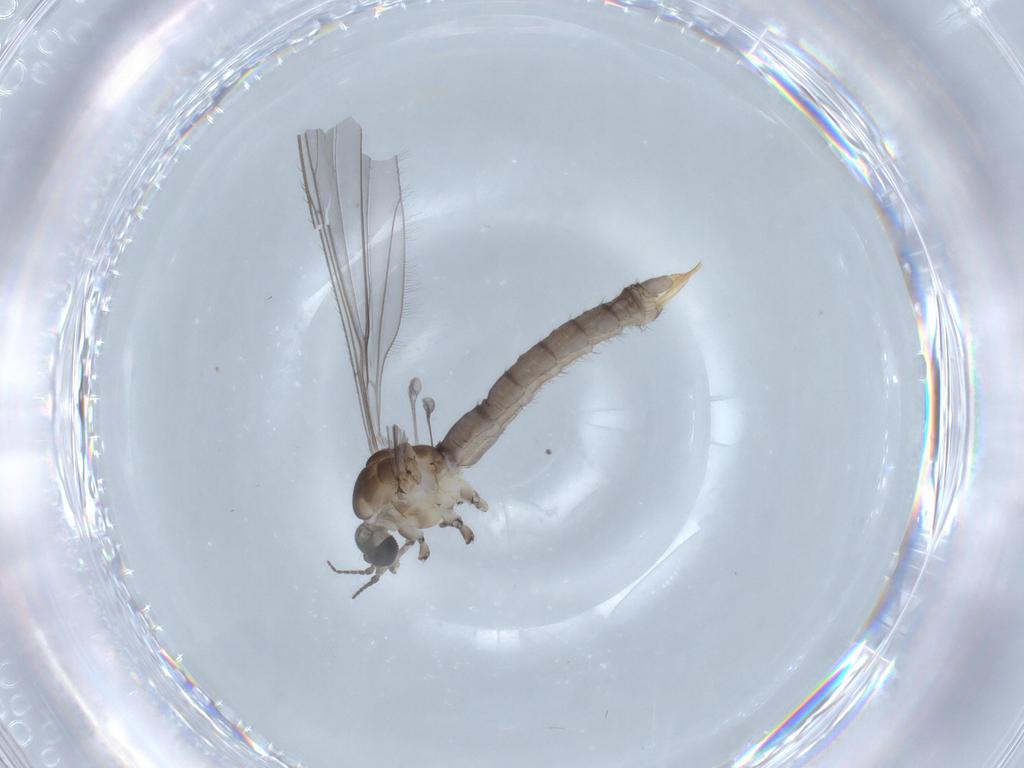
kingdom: Animalia
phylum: Arthropoda
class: Insecta
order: Diptera
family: Limoniidae
